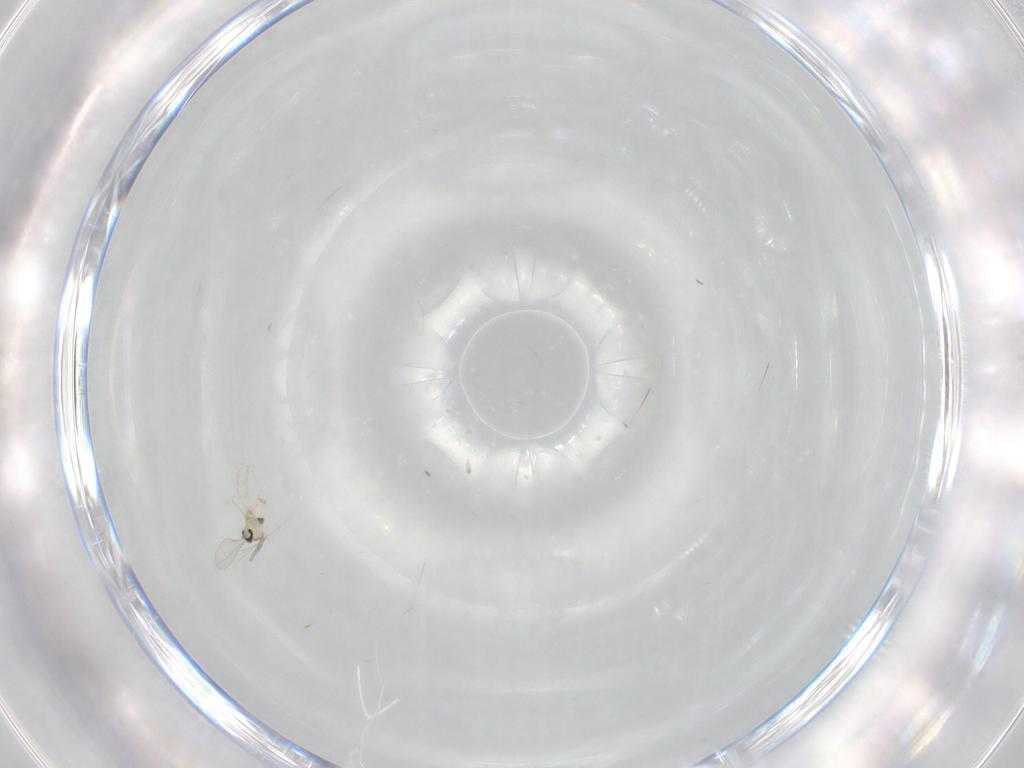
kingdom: Animalia
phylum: Arthropoda
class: Insecta
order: Diptera
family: Cecidomyiidae
